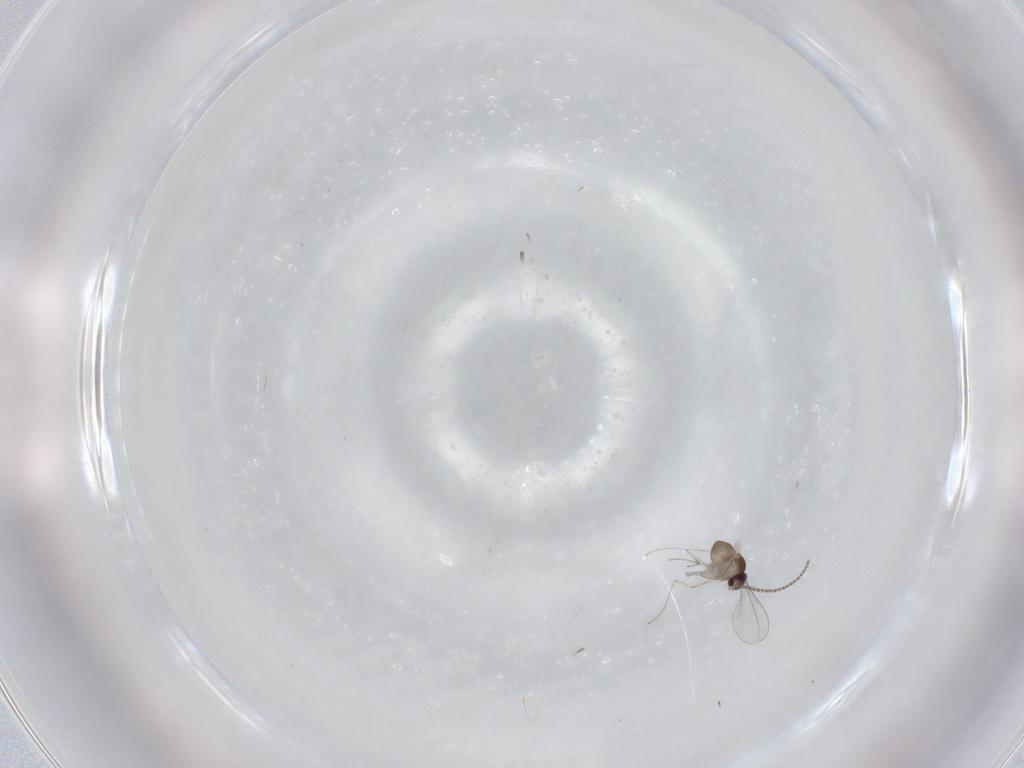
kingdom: Animalia
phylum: Arthropoda
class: Insecta
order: Diptera
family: Cecidomyiidae
